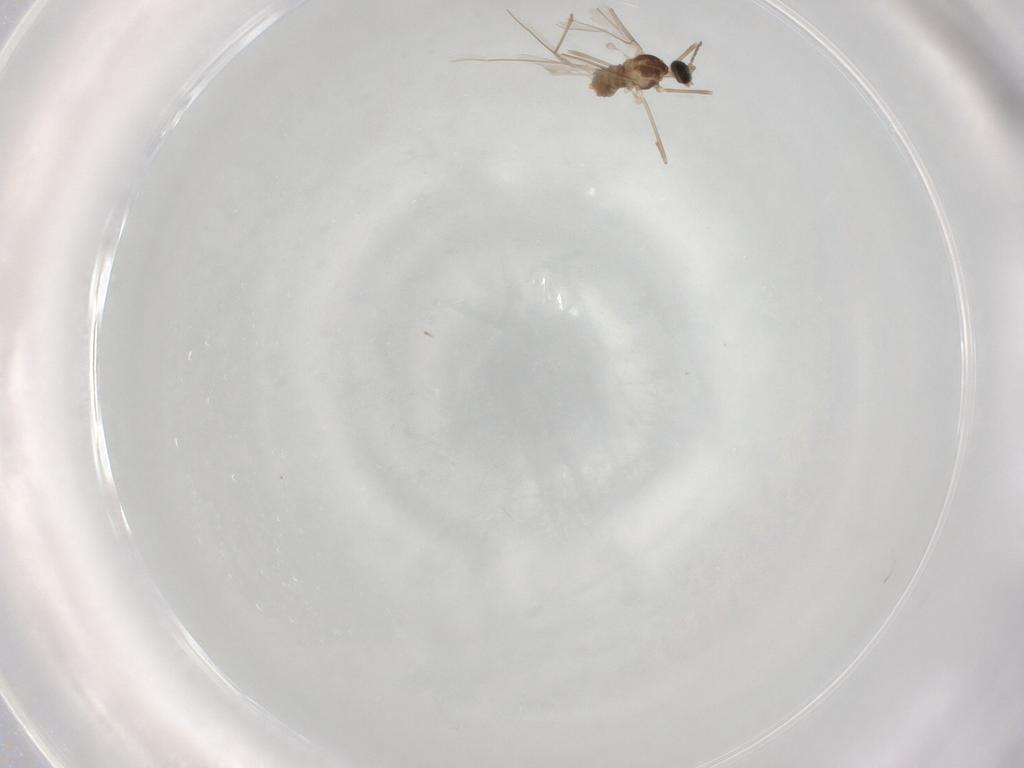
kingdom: Animalia
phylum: Arthropoda
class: Insecta
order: Diptera
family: Cecidomyiidae
